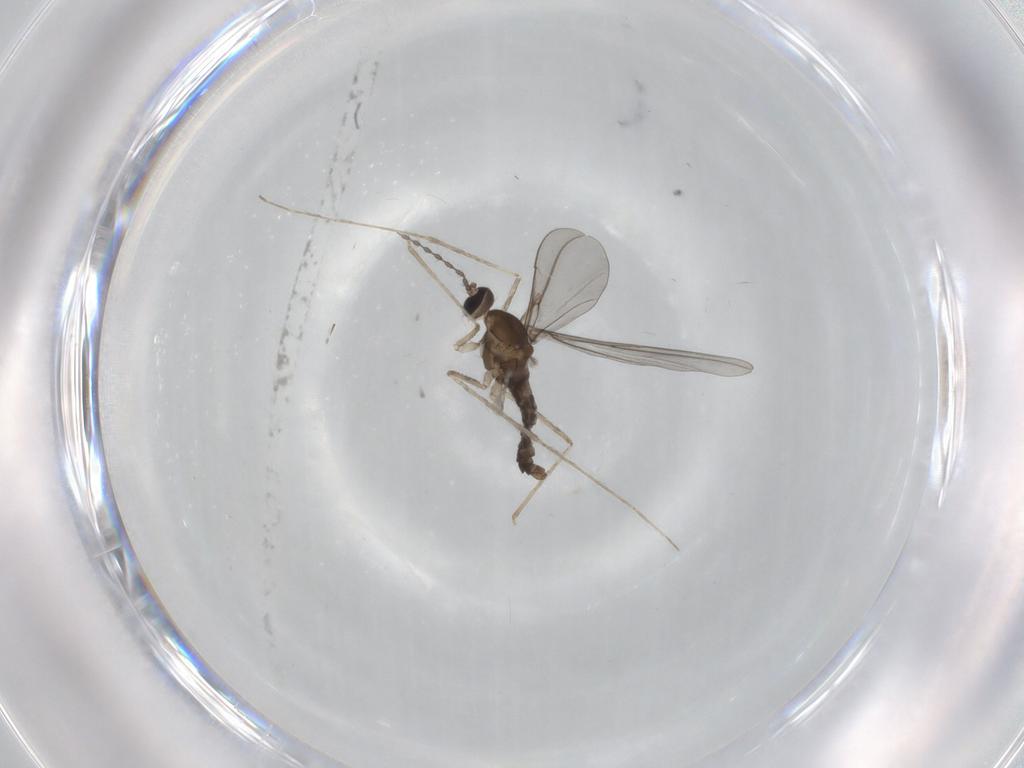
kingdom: Animalia
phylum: Arthropoda
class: Insecta
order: Diptera
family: Cecidomyiidae
